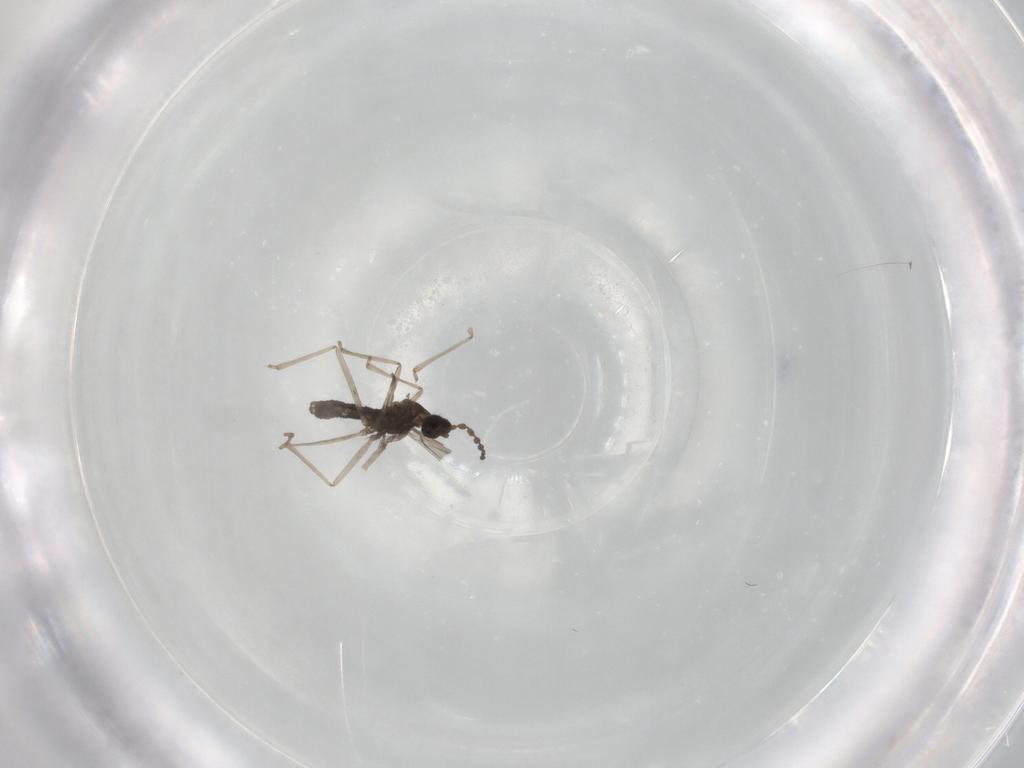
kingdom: Animalia
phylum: Arthropoda
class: Insecta
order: Diptera
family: Cecidomyiidae
